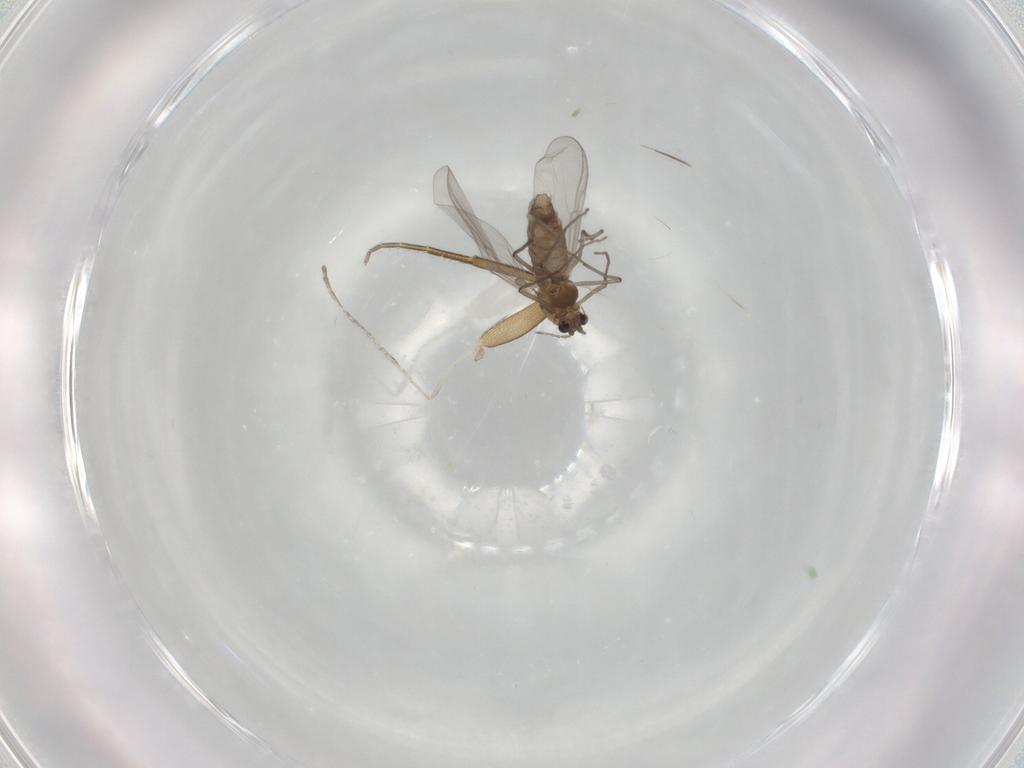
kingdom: Animalia
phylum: Arthropoda
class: Insecta
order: Diptera
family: Chironomidae
